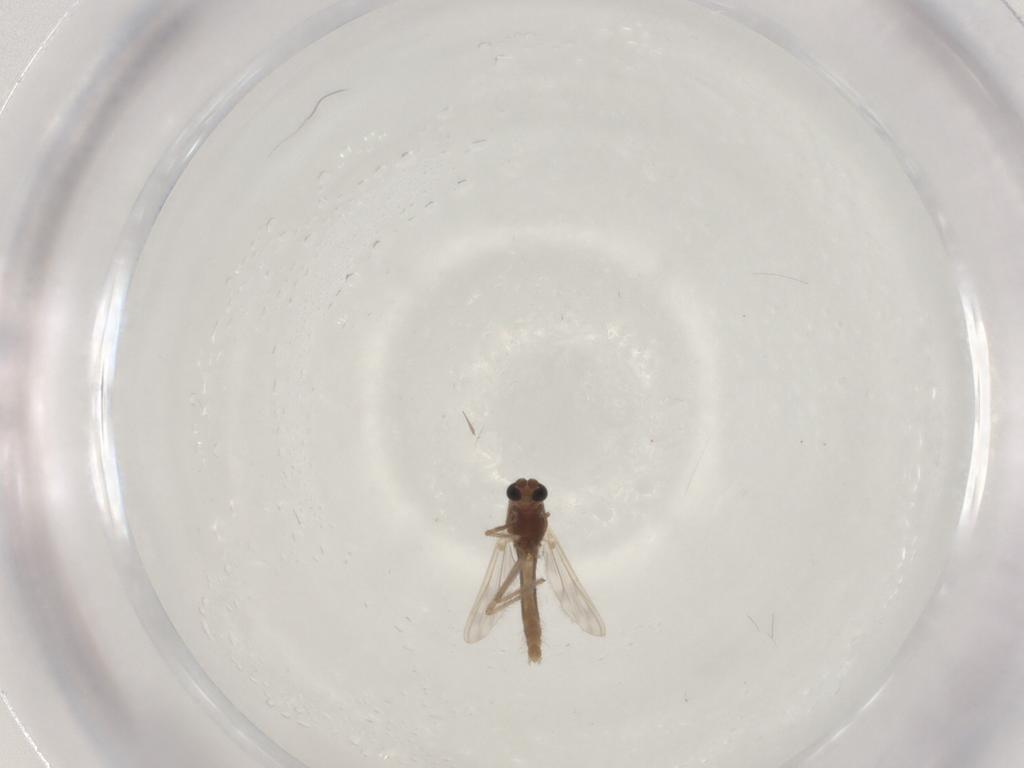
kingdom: Animalia
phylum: Arthropoda
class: Insecta
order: Diptera
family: Chironomidae
